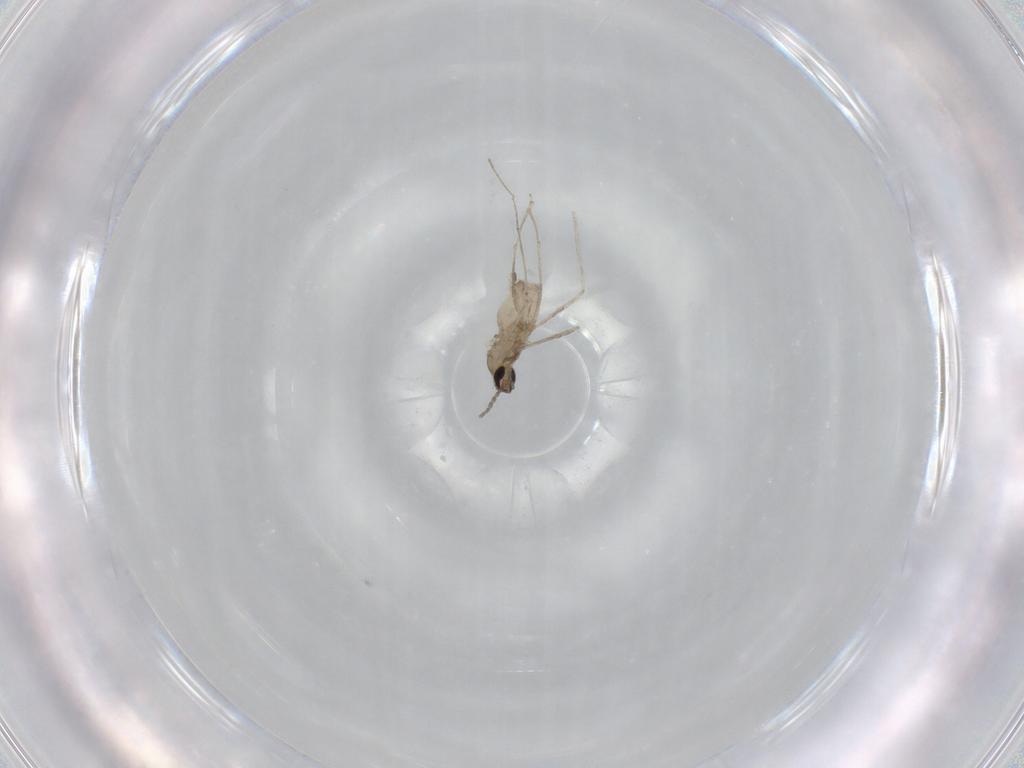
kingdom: Animalia
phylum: Arthropoda
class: Insecta
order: Diptera
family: Cecidomyiidae
